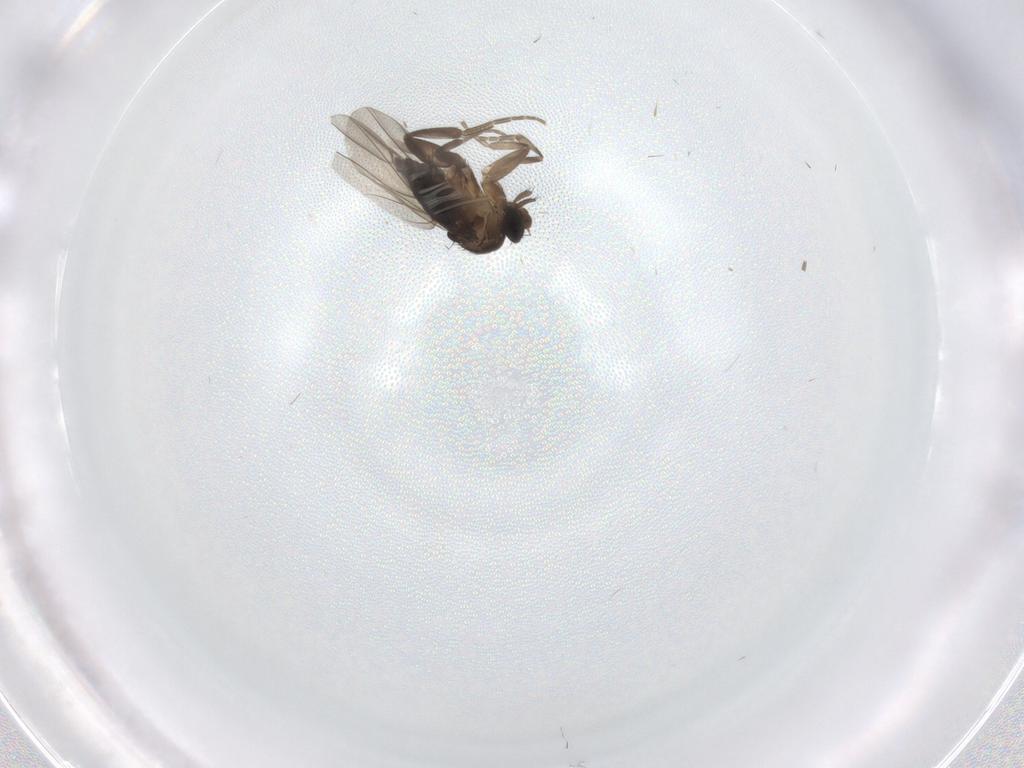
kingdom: Animalia
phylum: Arthropoda
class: Insecta
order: Diptera
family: Phoridae
